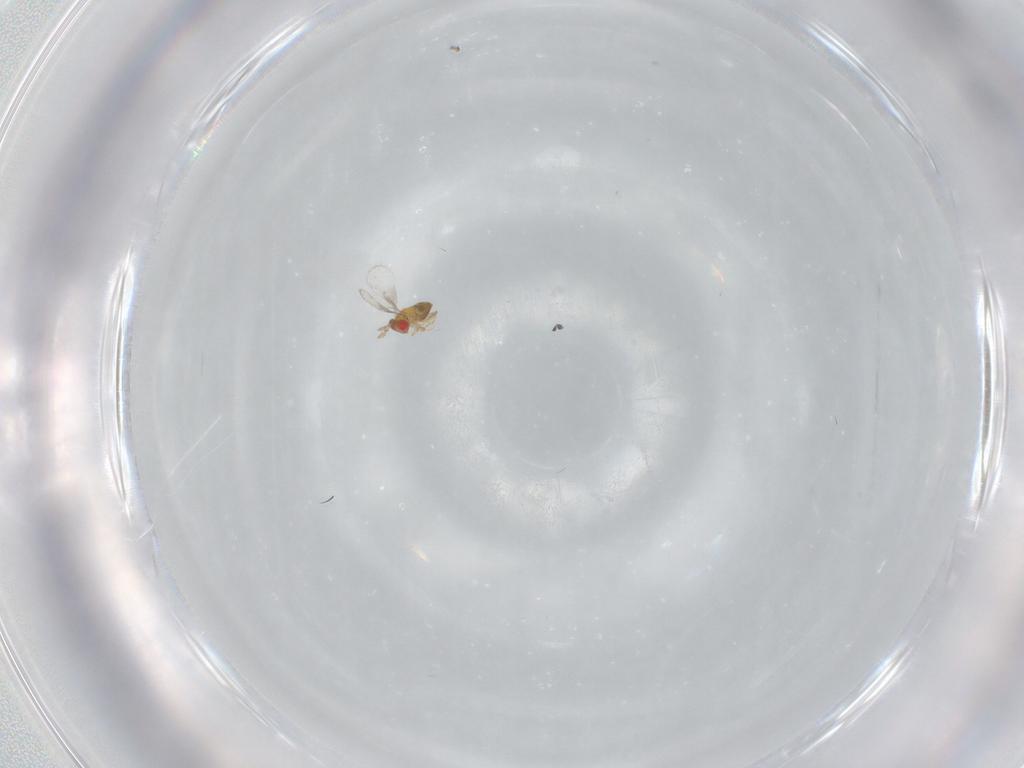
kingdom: Animalia
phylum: Arthropoda
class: Insecta
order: Hymenoptera
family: Trichogrammatidae
